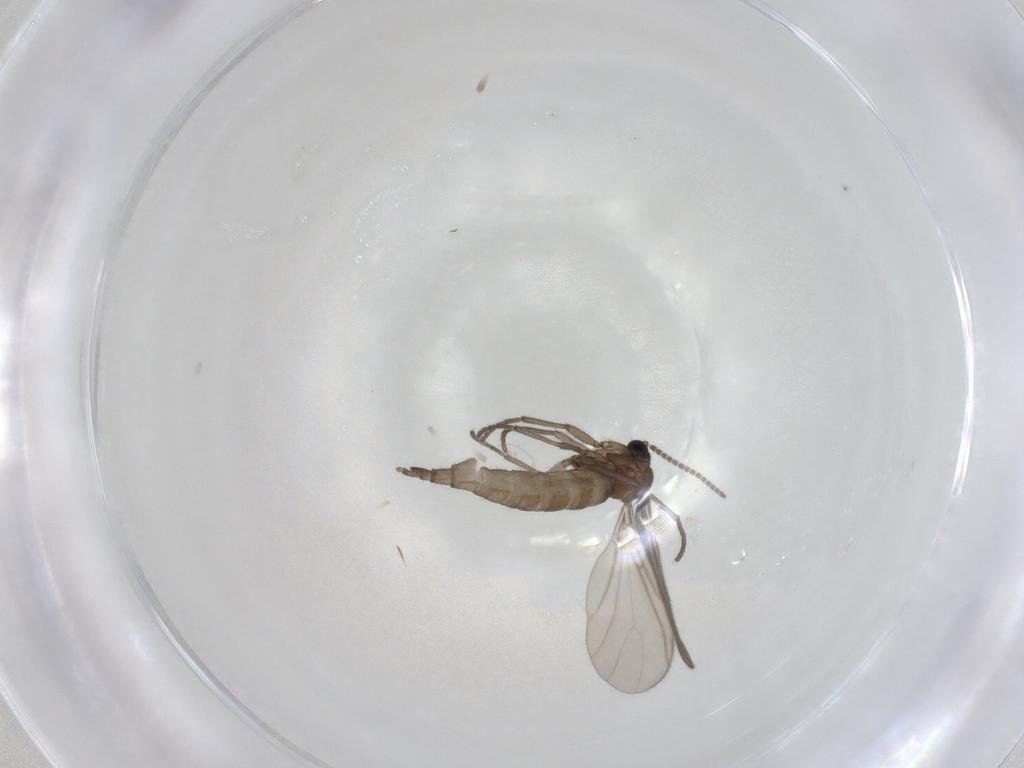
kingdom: Animalia
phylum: Arthropoda
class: Insecta
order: Diptera
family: Sciaridae
